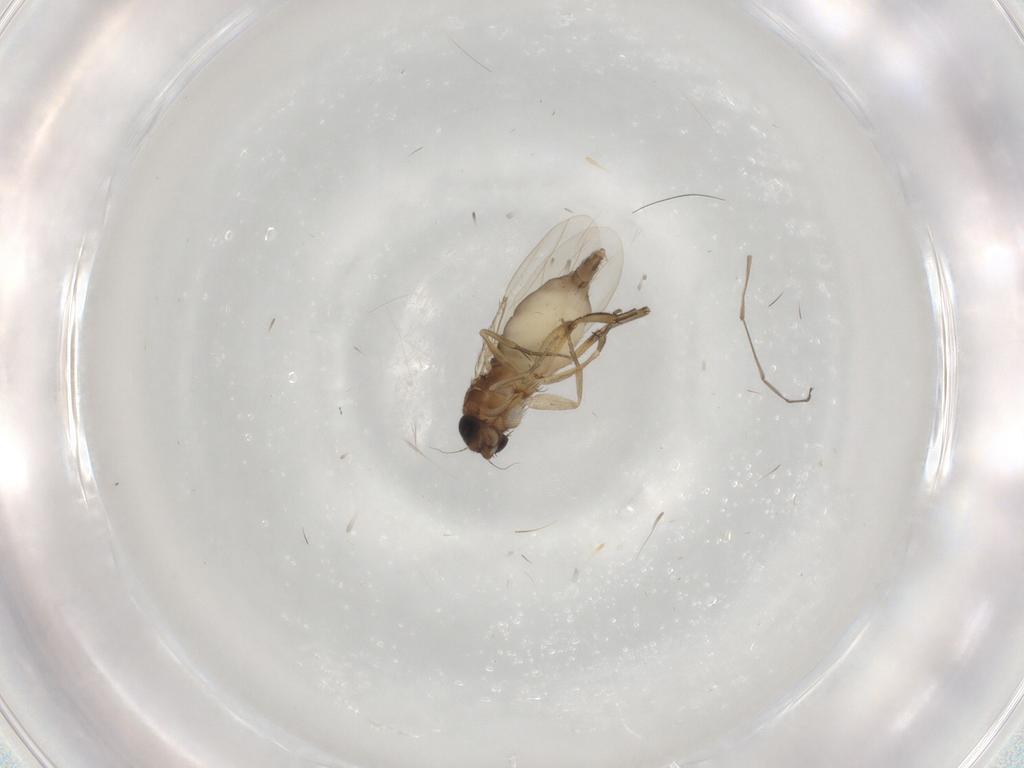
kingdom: Animalia
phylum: Arthropoda
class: Insecta
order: Diptera
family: Phoridae
